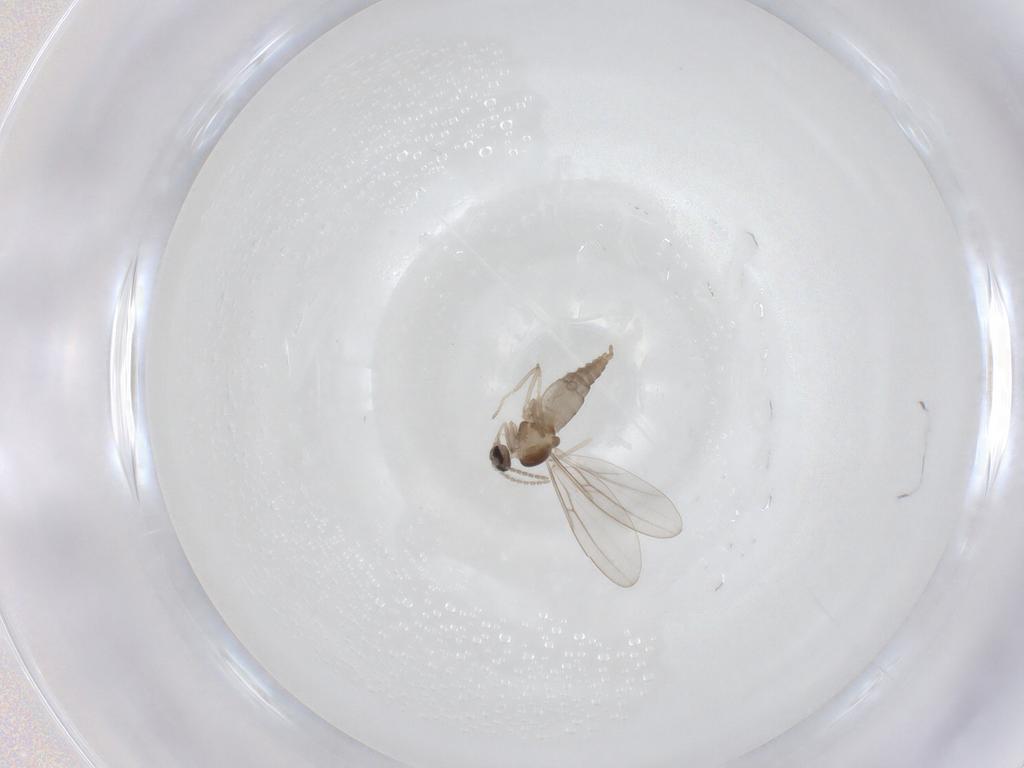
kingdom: Animalia
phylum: Arthropoda
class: Insecta
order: Diptera
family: Cecidomyiidae
